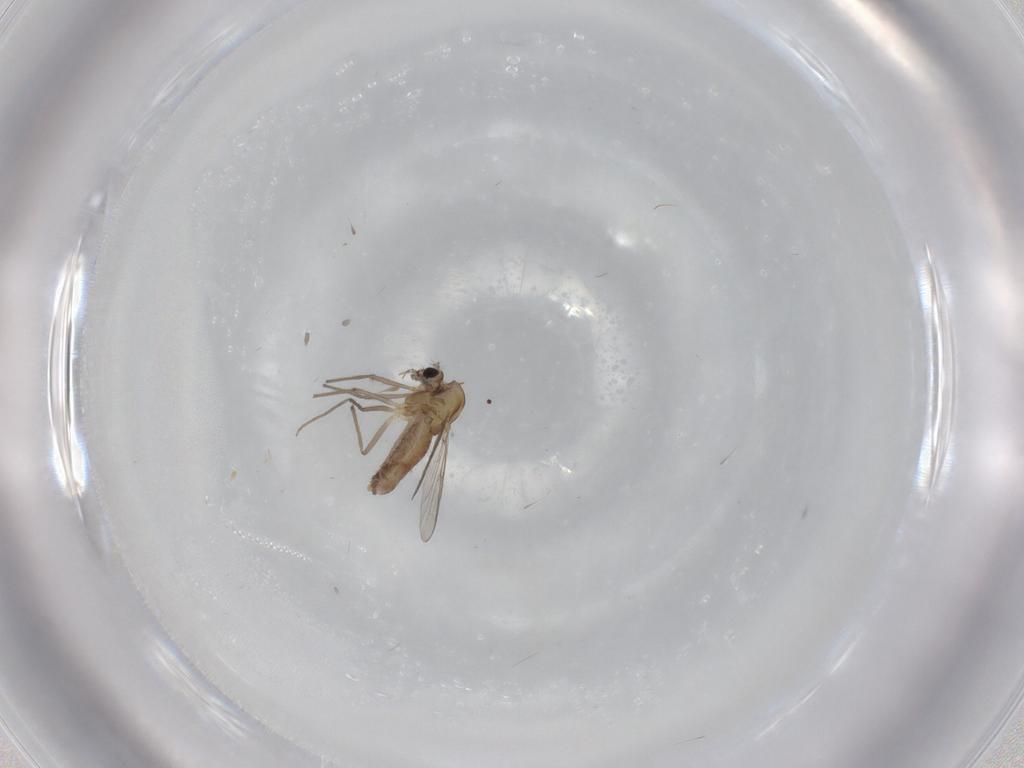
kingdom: Animalia
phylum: Arthropoda
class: Insecta
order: Diptera
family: Chironomidae
